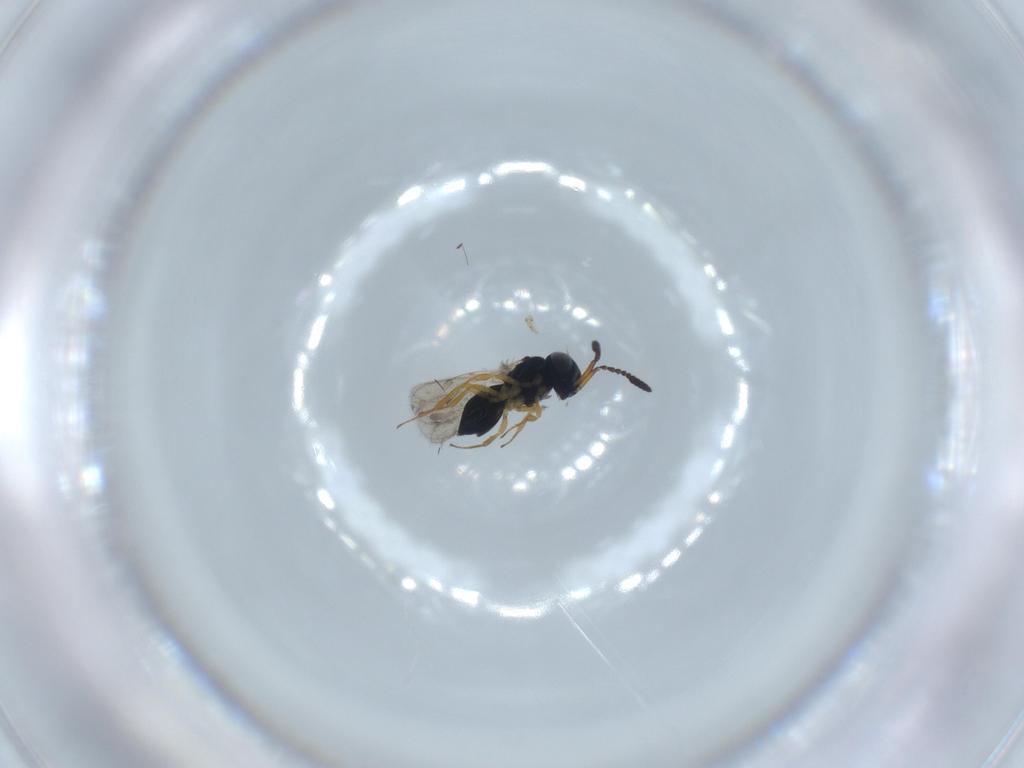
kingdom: Animalia
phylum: Arthropoda
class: Insecta
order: Hymenoptera
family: Scelionidae
